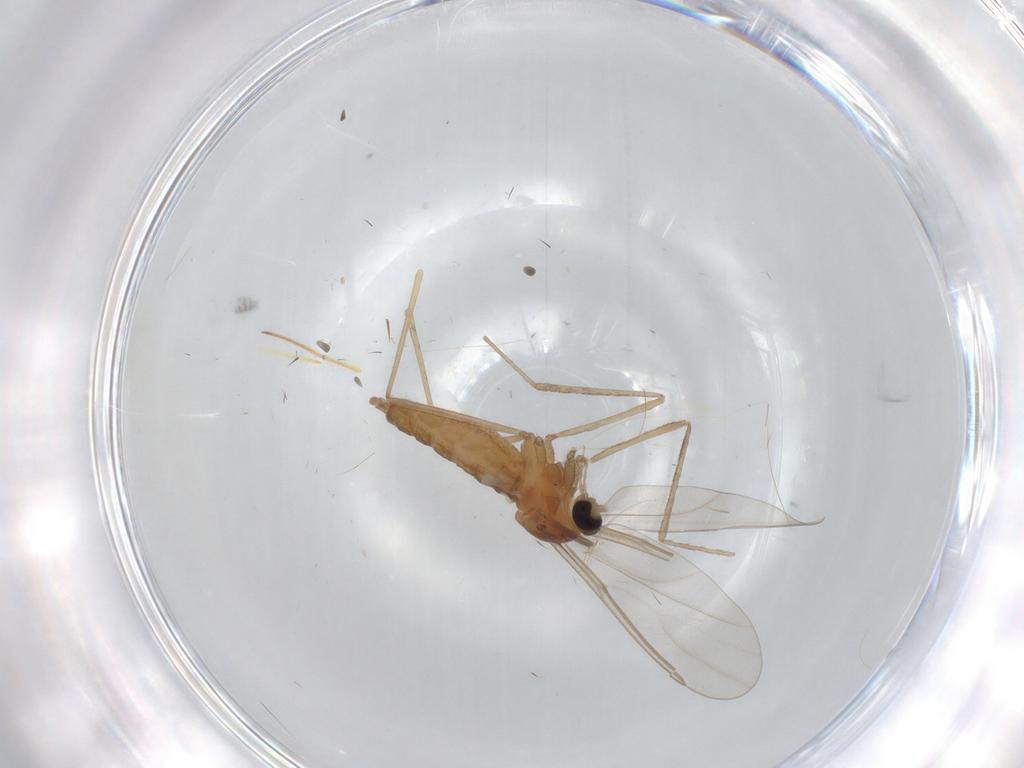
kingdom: Animalia
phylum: Arthropoda
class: Insecta
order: Diptera
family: Cecidomyiidae
